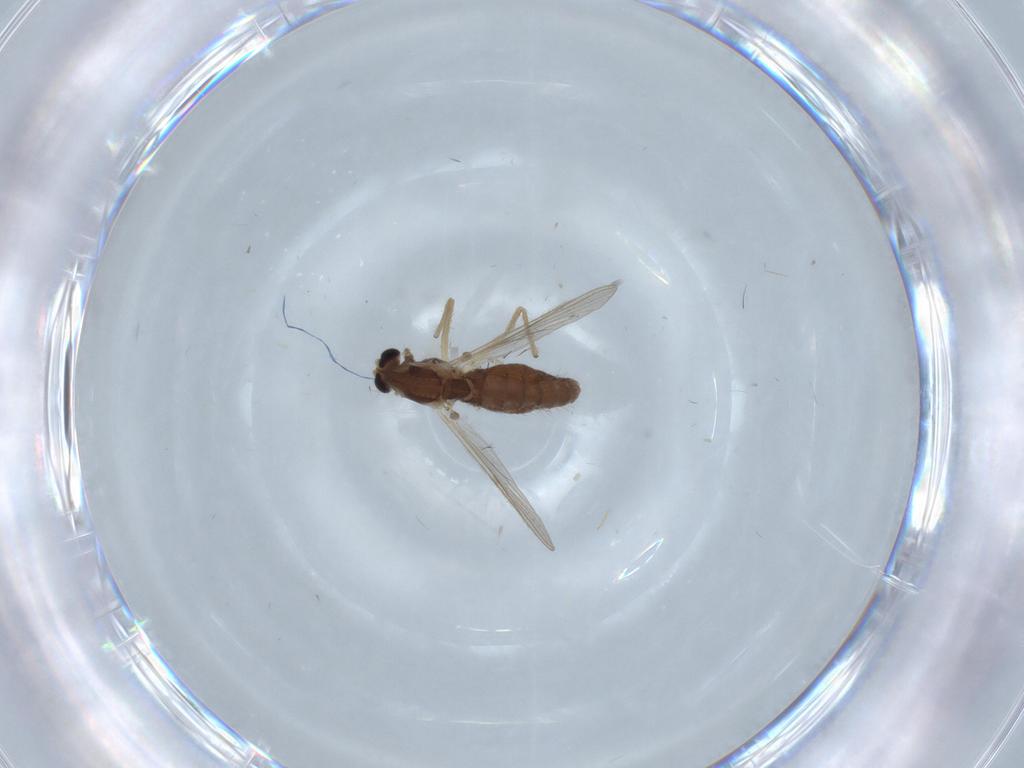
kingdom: Animalia
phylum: Arthropoda
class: Insecta
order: Diptera
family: Chironomidae
